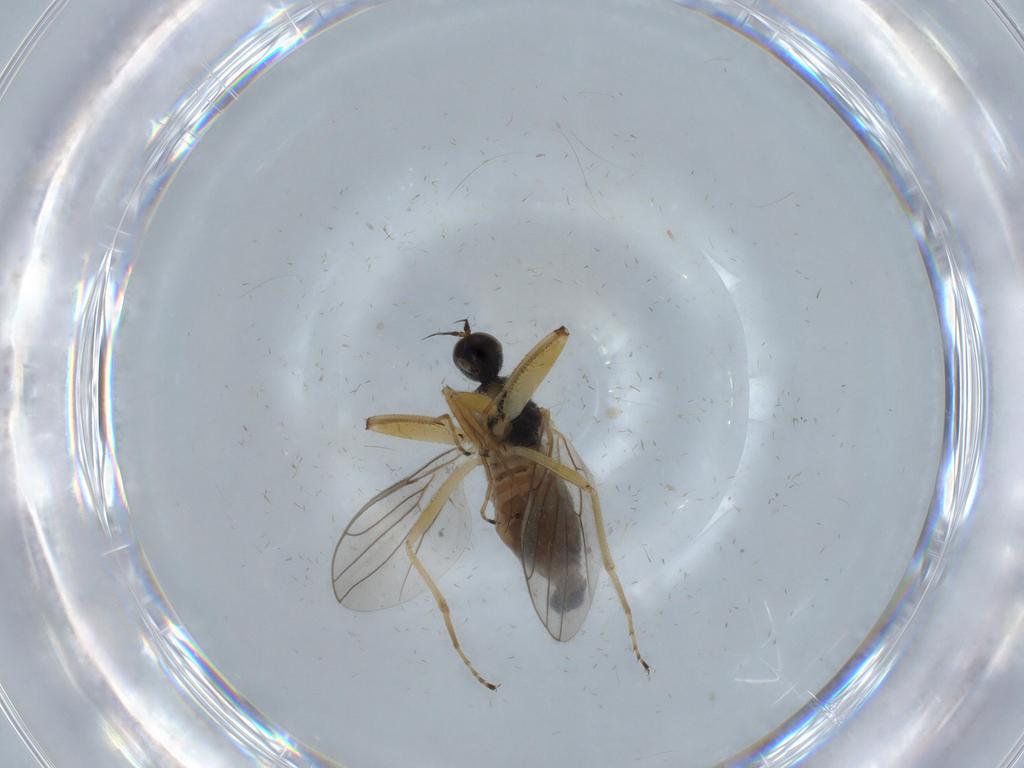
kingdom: Animalia
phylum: Arthropoda
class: Insecta
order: Diptera
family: Hybotidae
